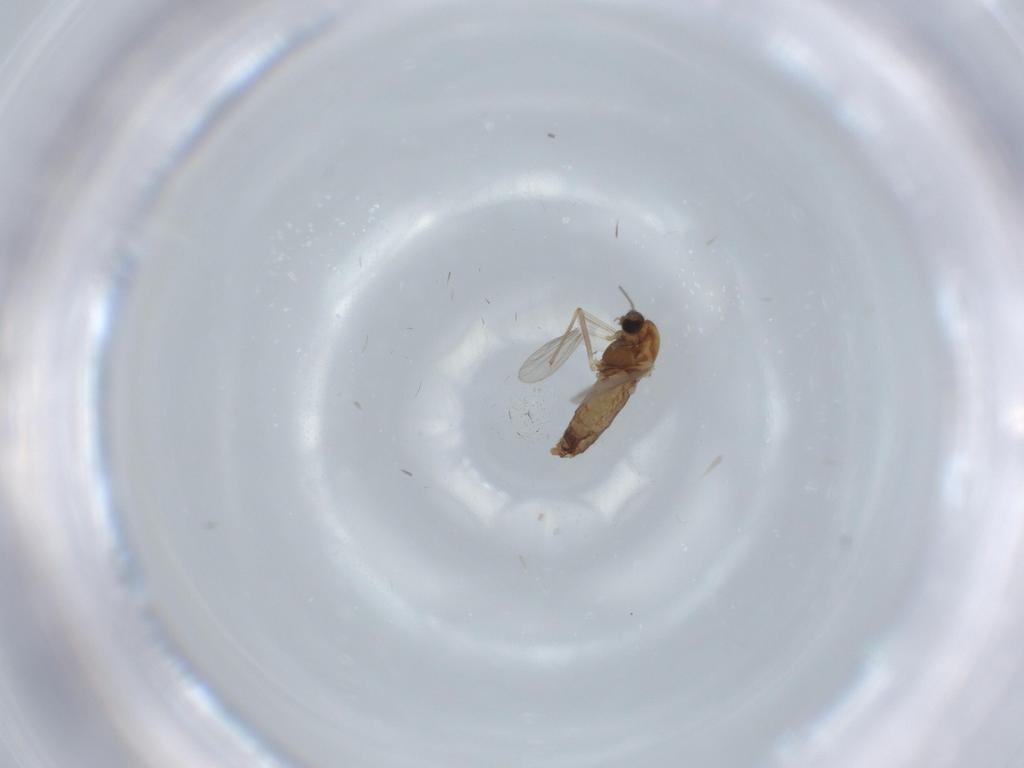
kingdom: Animalia
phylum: Arthropoda
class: Insecta
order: Diptera
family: Chironomidae
